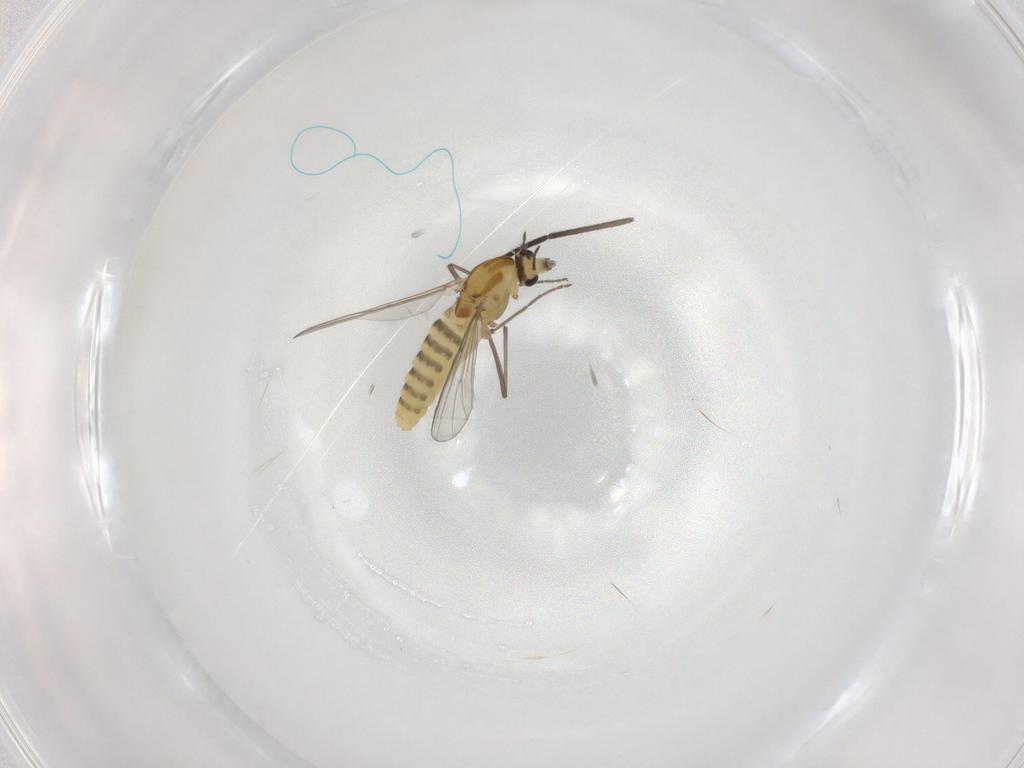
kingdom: Animalia
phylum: Arthropoda
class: Insecta
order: Diptera
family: Chironomidae
